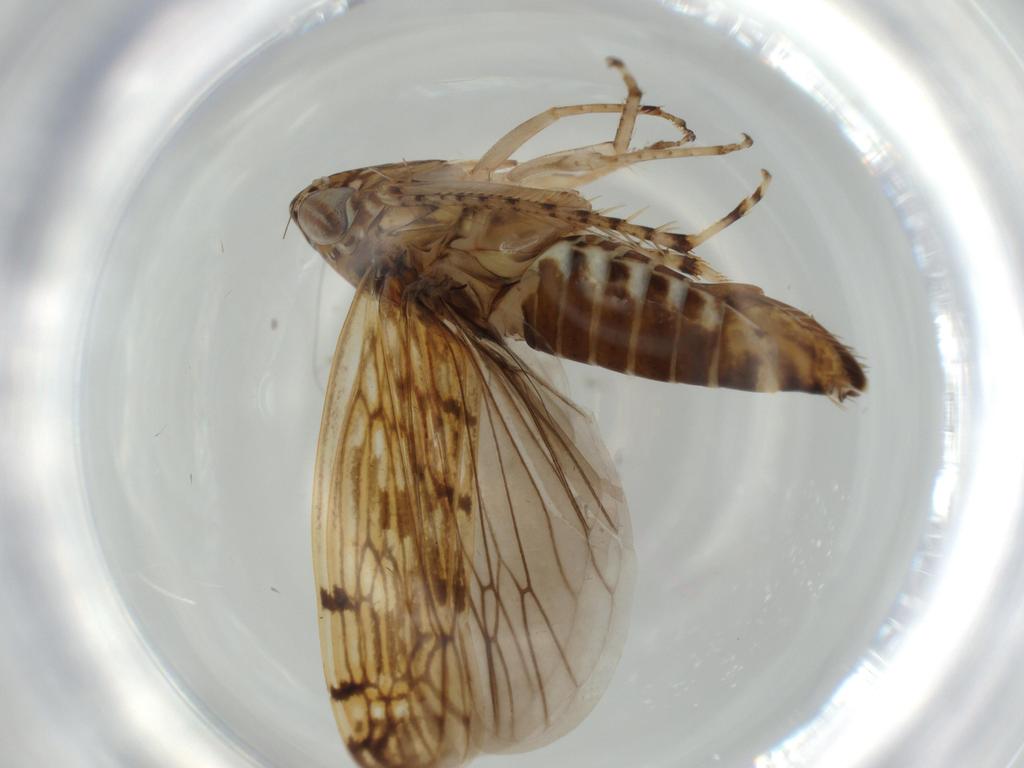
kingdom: Animalia
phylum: Arthropoda
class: Insecta
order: Hemiptera
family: Cicadellidae
